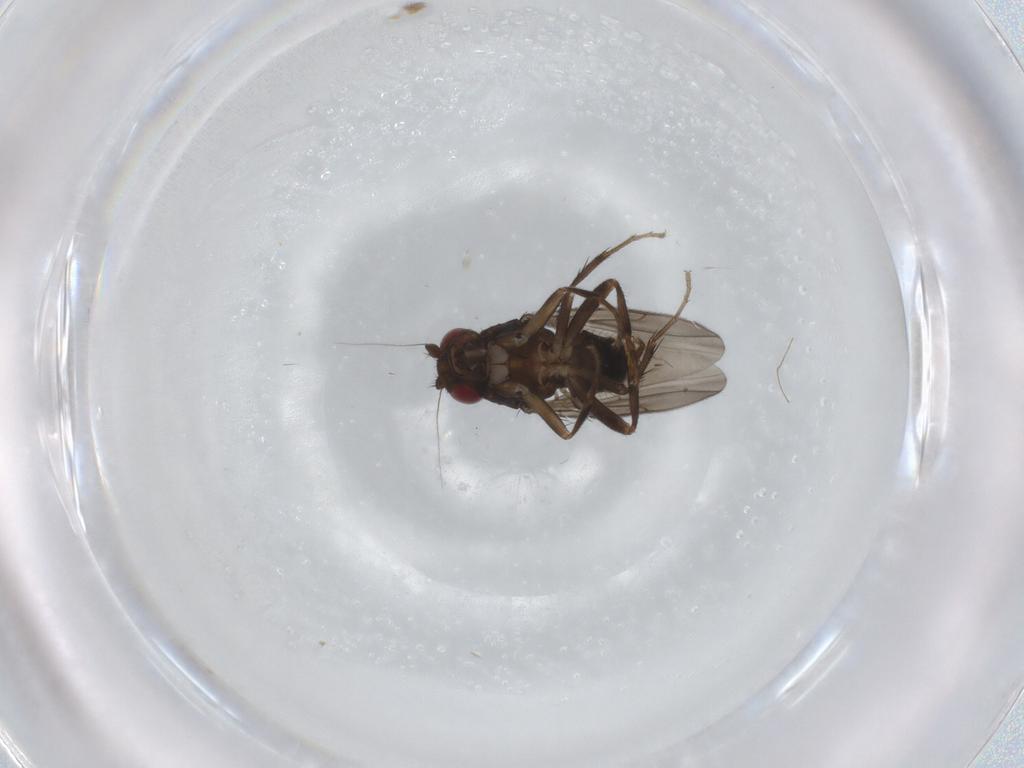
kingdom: Animalia
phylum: Arthropoda
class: Insecta
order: Diptera
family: Sciaridae
